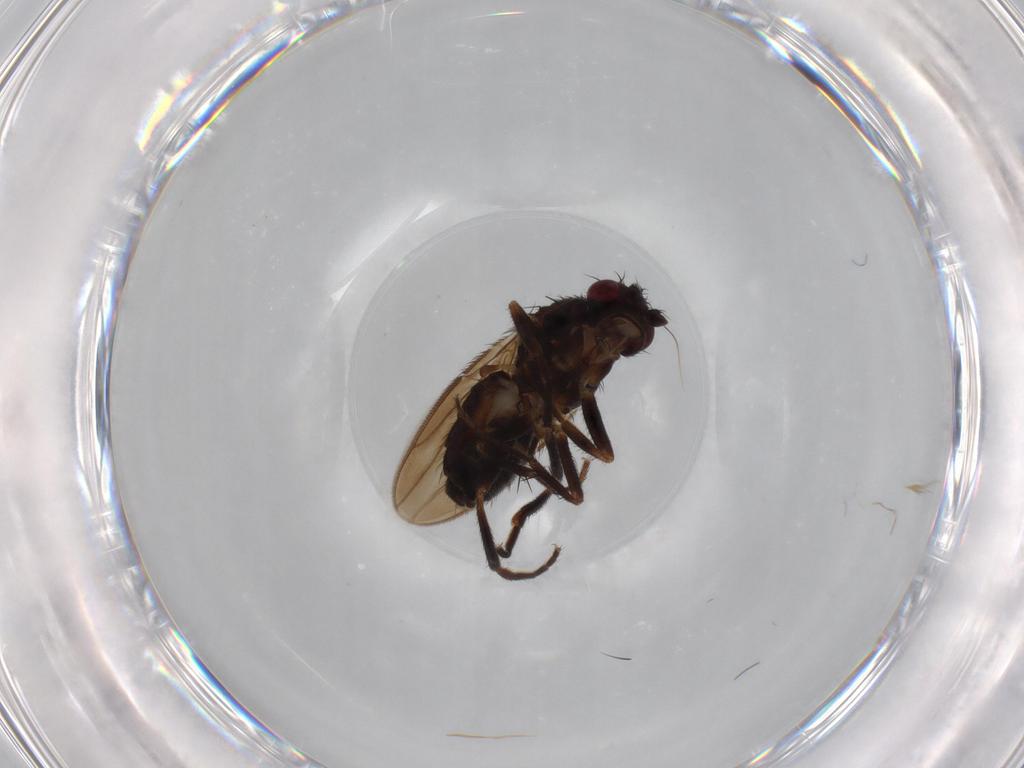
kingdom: Animalia
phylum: Arthropoda
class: Insecta
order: Diptera
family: Sphaeroceridae
